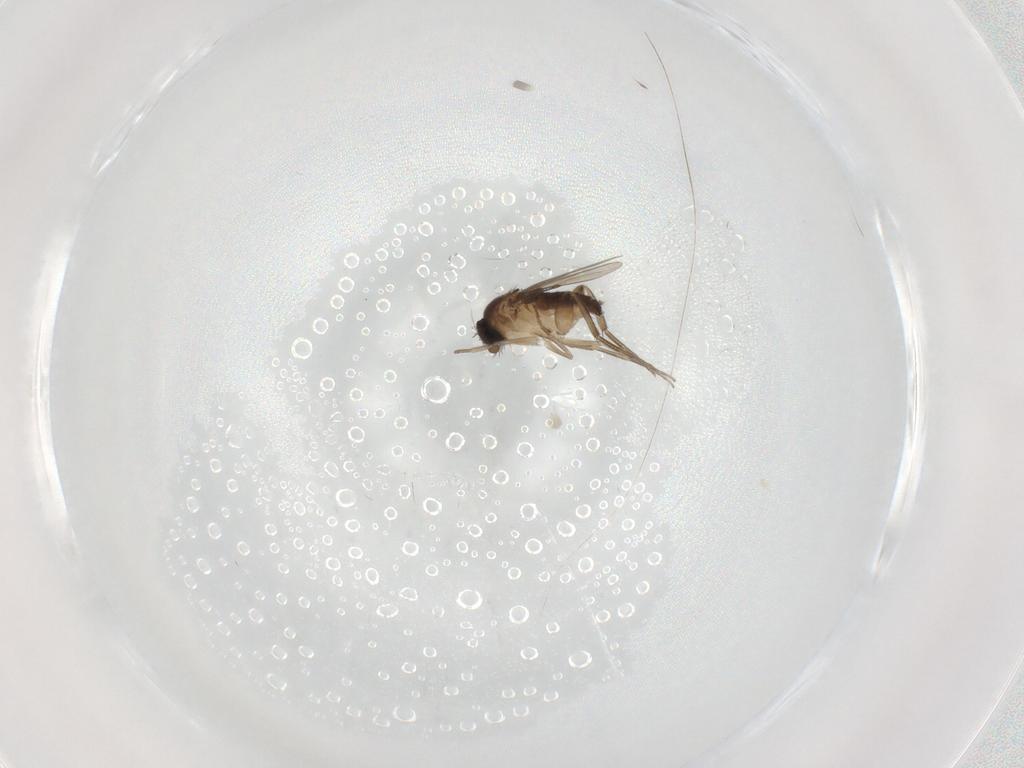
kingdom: Animalia
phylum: Arthropoda
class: Insecta
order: Diptera
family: Phoridae
